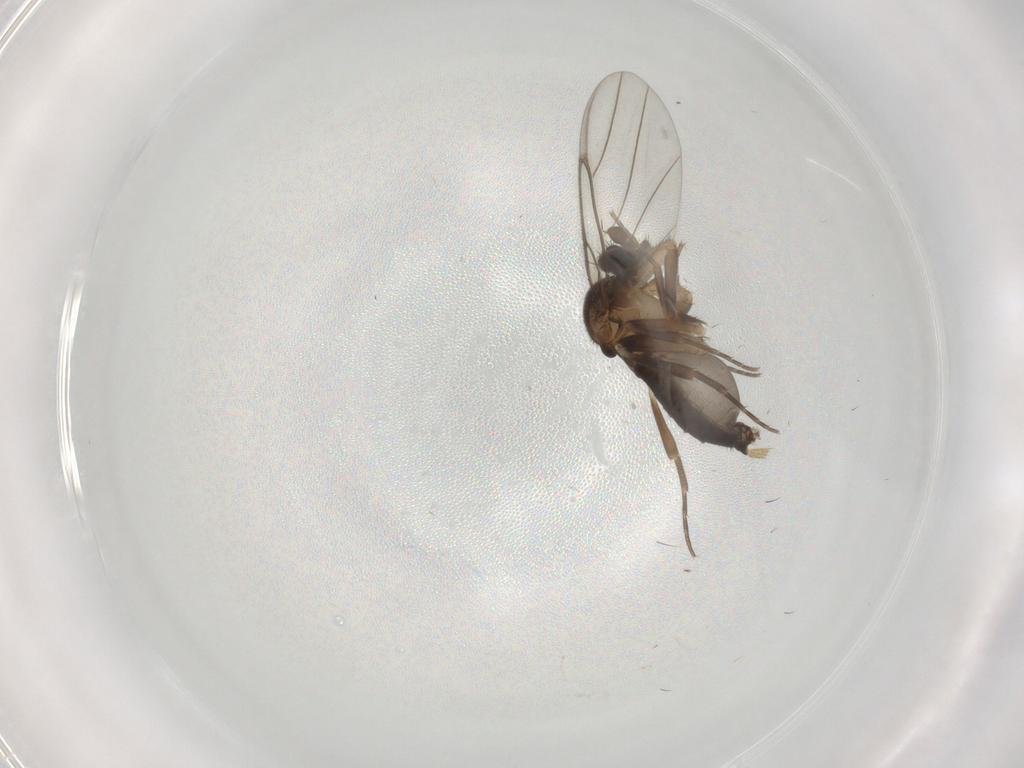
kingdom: Animalia
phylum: Arthropoda
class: Insecta
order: Diptera
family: Phoridae
